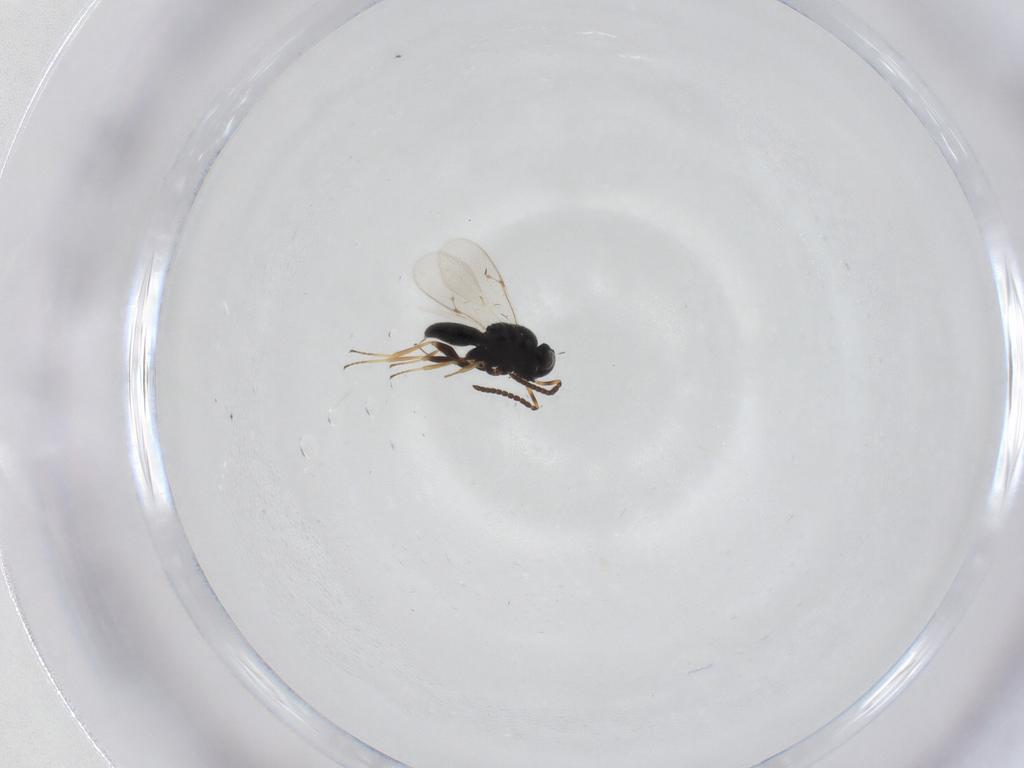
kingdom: Animalia
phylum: Arthropoda
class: Insecta
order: Hymenoptera
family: Scelionidae
